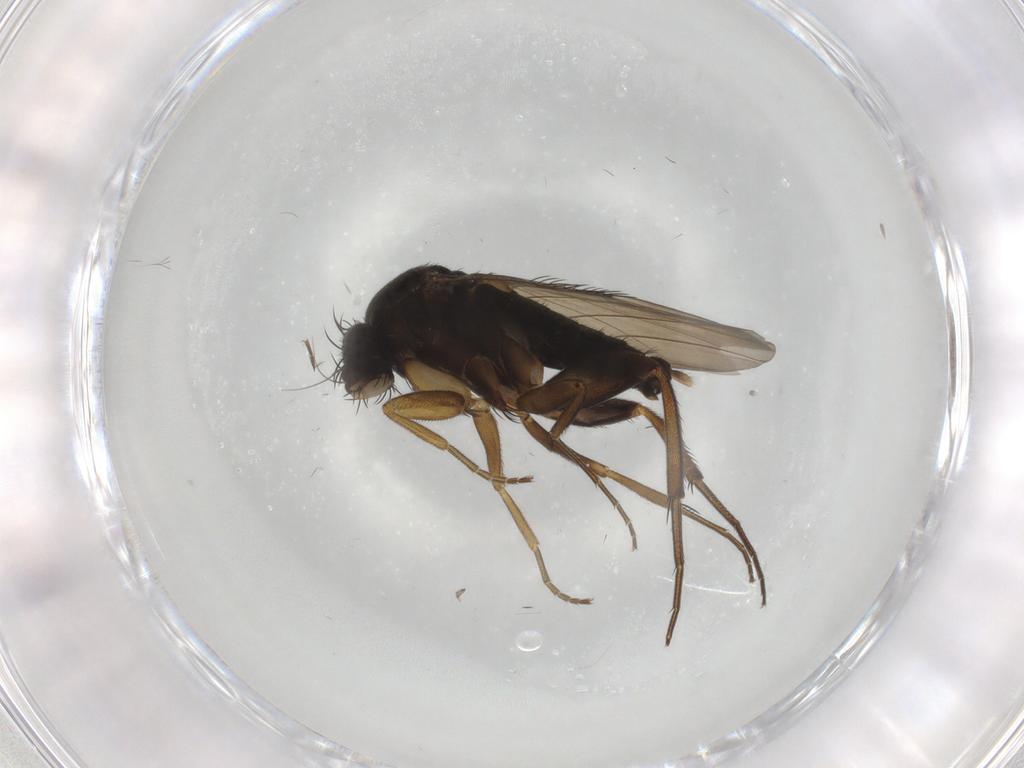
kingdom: Animalia
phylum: Arthropoda
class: Insecta
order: Diptera
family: Phoridae
